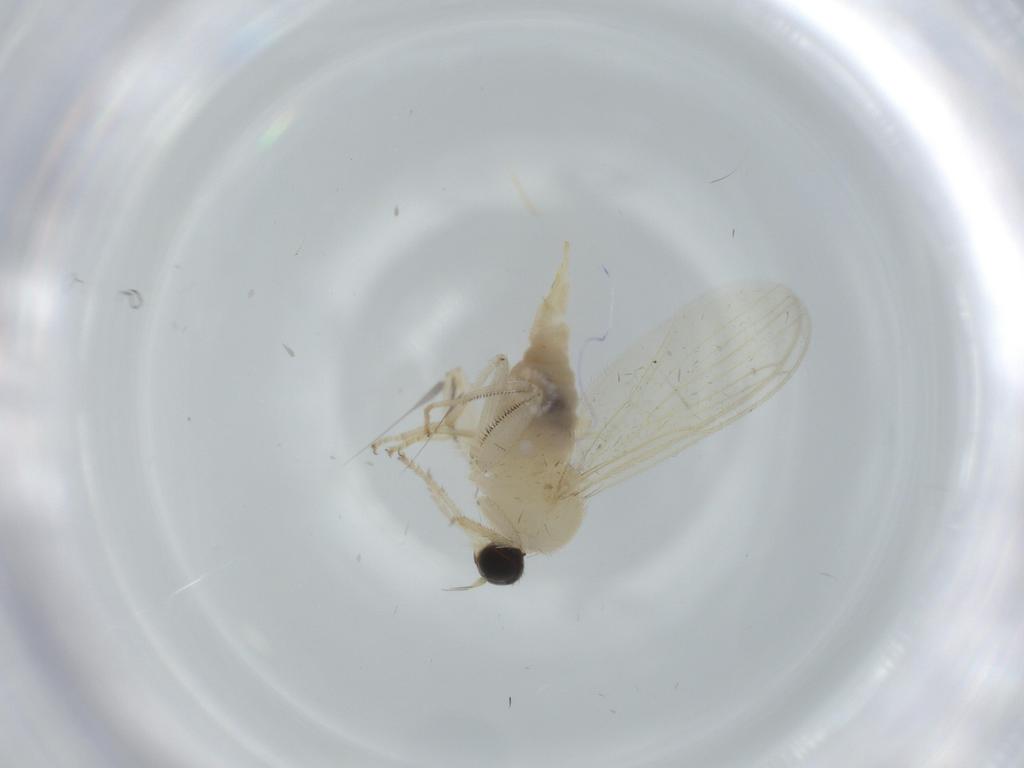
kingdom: Animalia
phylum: Arthropoda
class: Insecta
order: Diptera
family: Hybotidae
